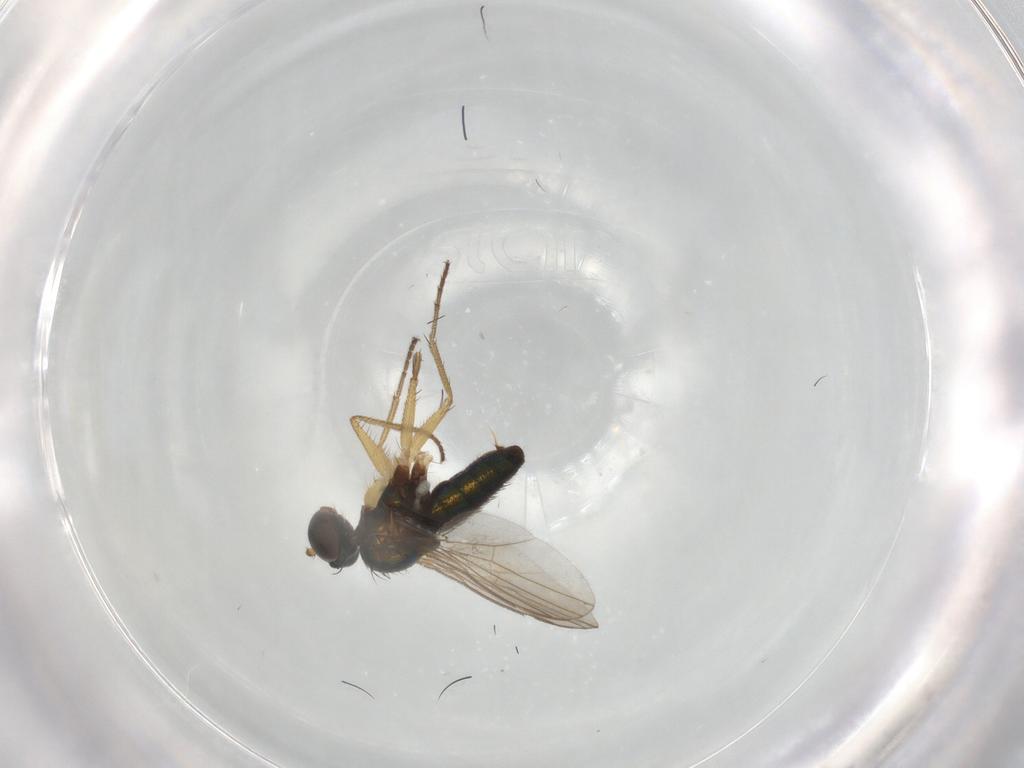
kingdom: Animalia
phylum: Arthropoda
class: Insecta
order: Diptera
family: Dolichopodidae
